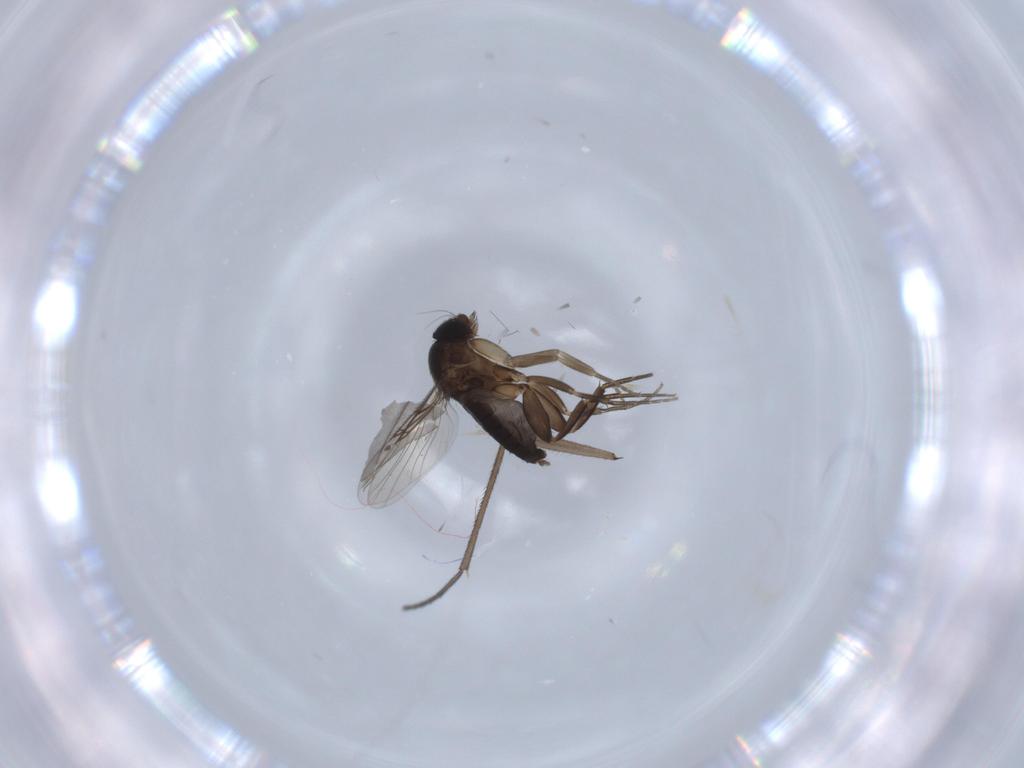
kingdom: Animalia
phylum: Arthropoda
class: Insecta
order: Diptera
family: Phoridae
